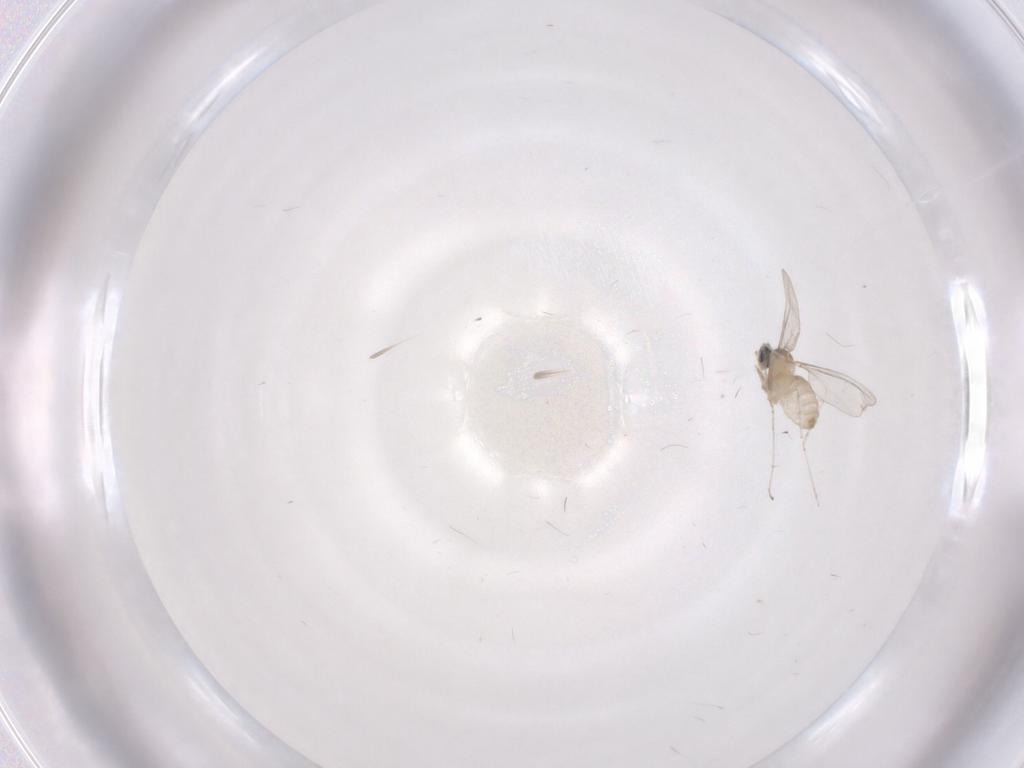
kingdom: Animalia
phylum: Arthropoda
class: Insecta
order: Diptera
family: Cecidomyiidae
